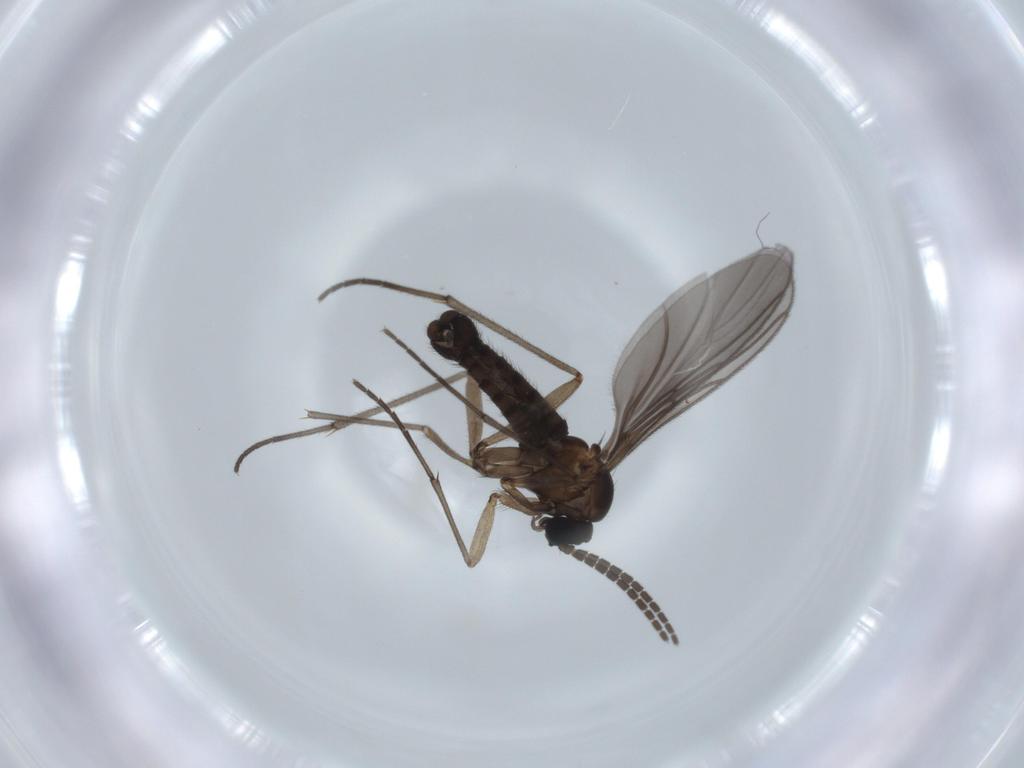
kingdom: Animalia
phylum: Arthropoda
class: Insecta
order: Diptera
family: Sciaridae
